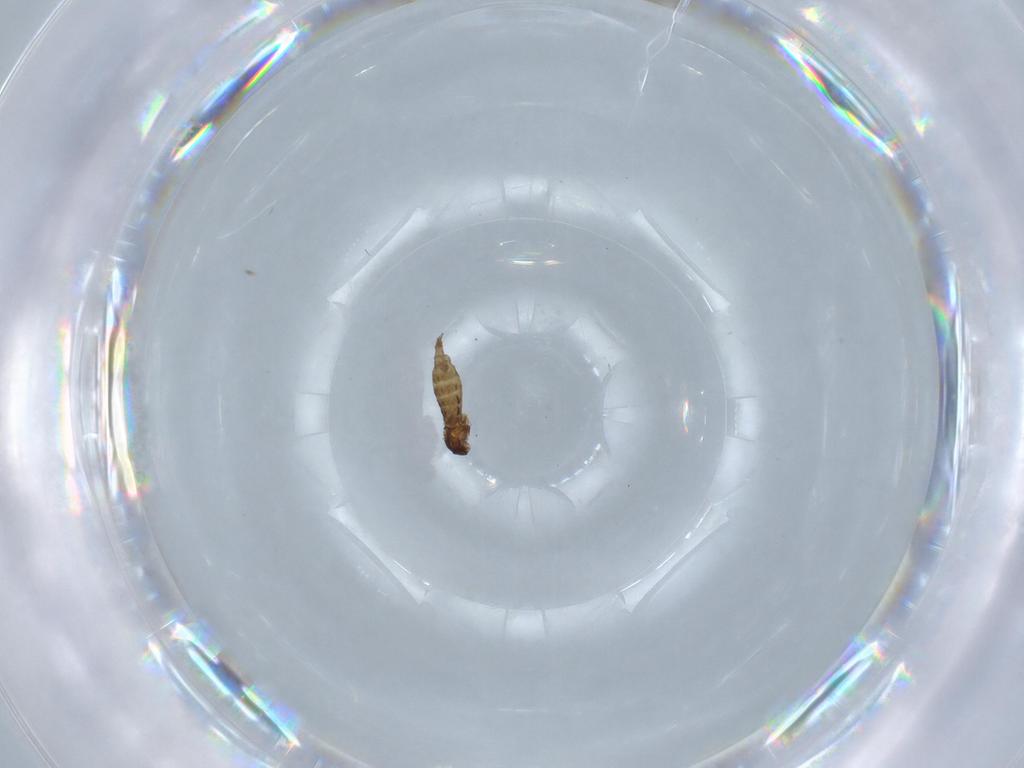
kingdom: Animalia
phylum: Arthropoda
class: Insecta
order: Diptera
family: Cecidomyiidae
